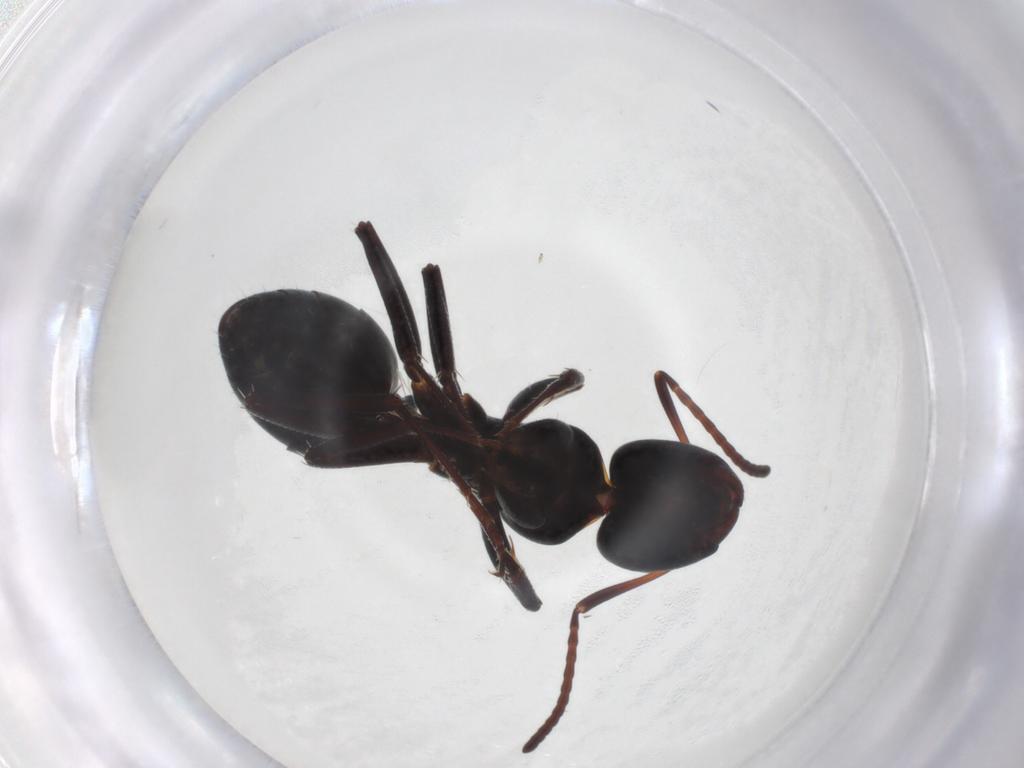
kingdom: Animalia
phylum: Arthropoda
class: Insecta
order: Hymenoptera
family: Formicidae
